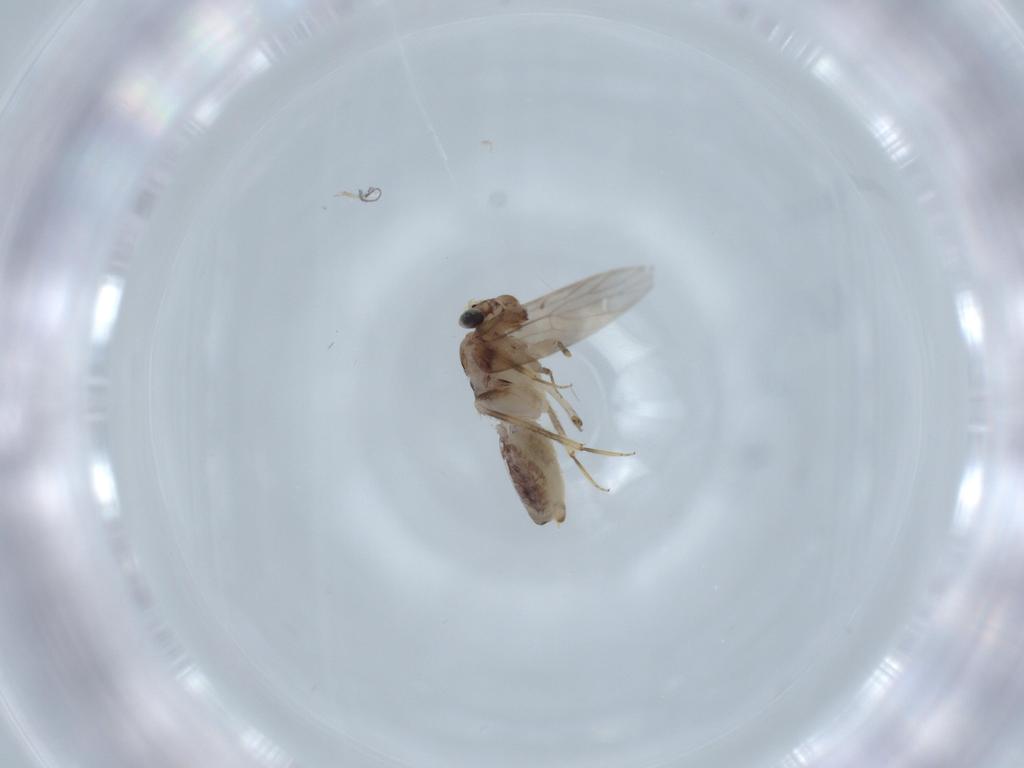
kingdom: Animalia
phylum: Arthropoda
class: Insecta
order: Psocodea
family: Lepidopsocidae
